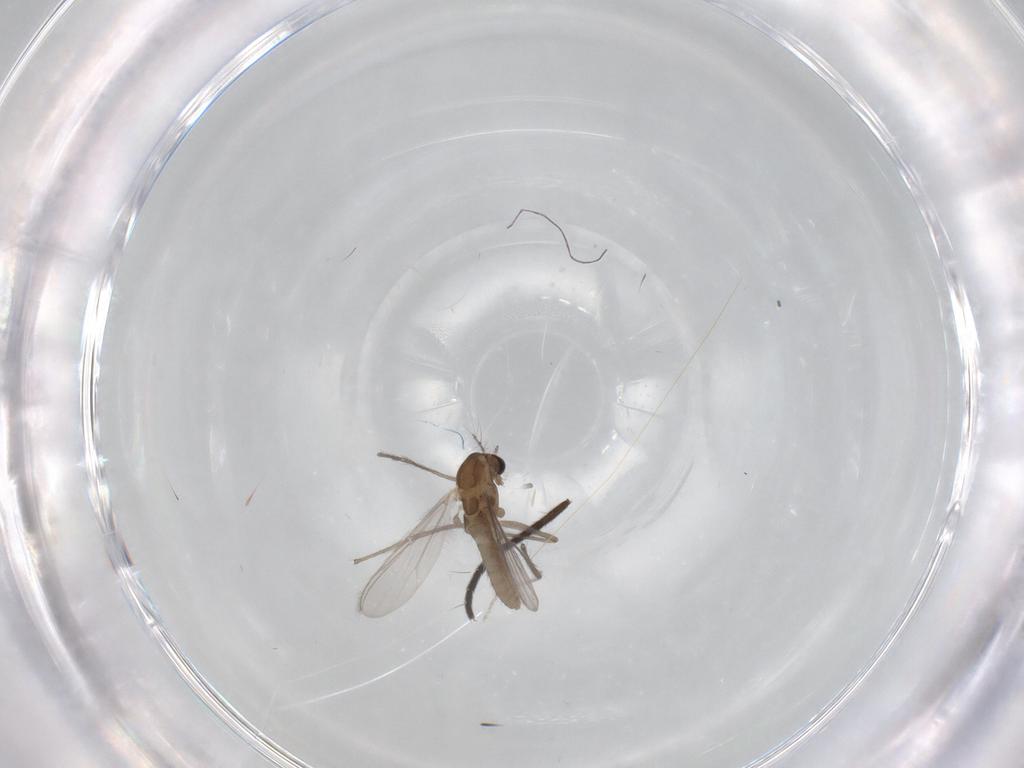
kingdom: Animalia
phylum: Arthropoda
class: Insecta
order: Diptera
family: Chironomidae
